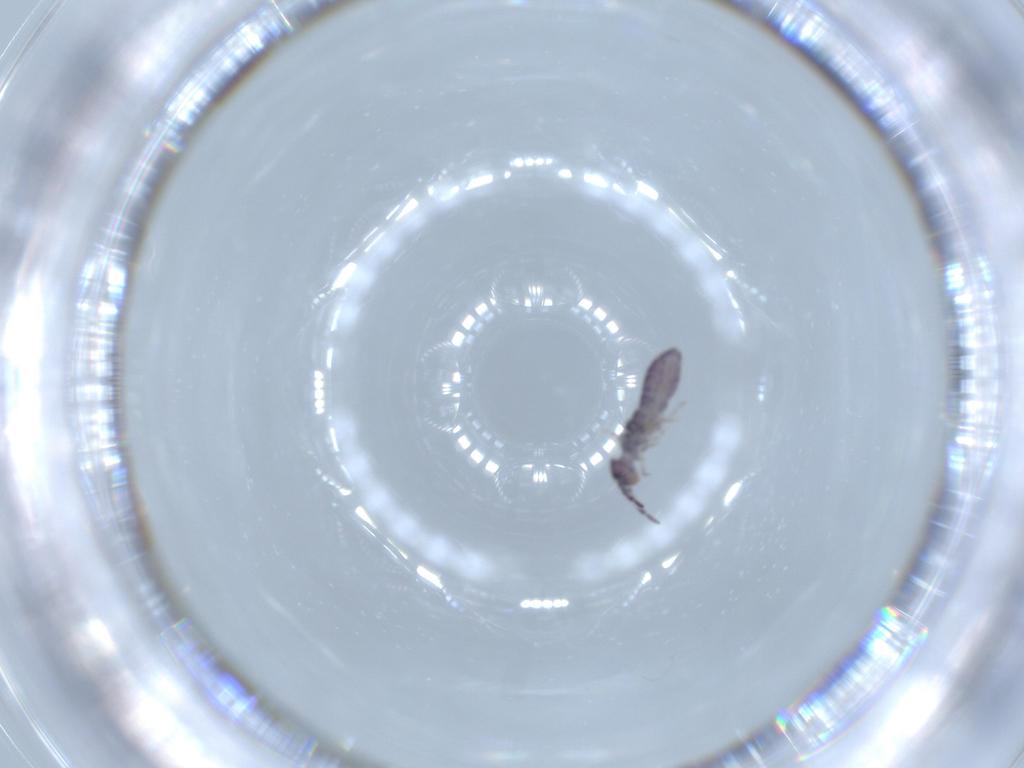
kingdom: Animalia
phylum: Arthropoda
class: Collembola
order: Entomobryomorpha
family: Isotomidae
